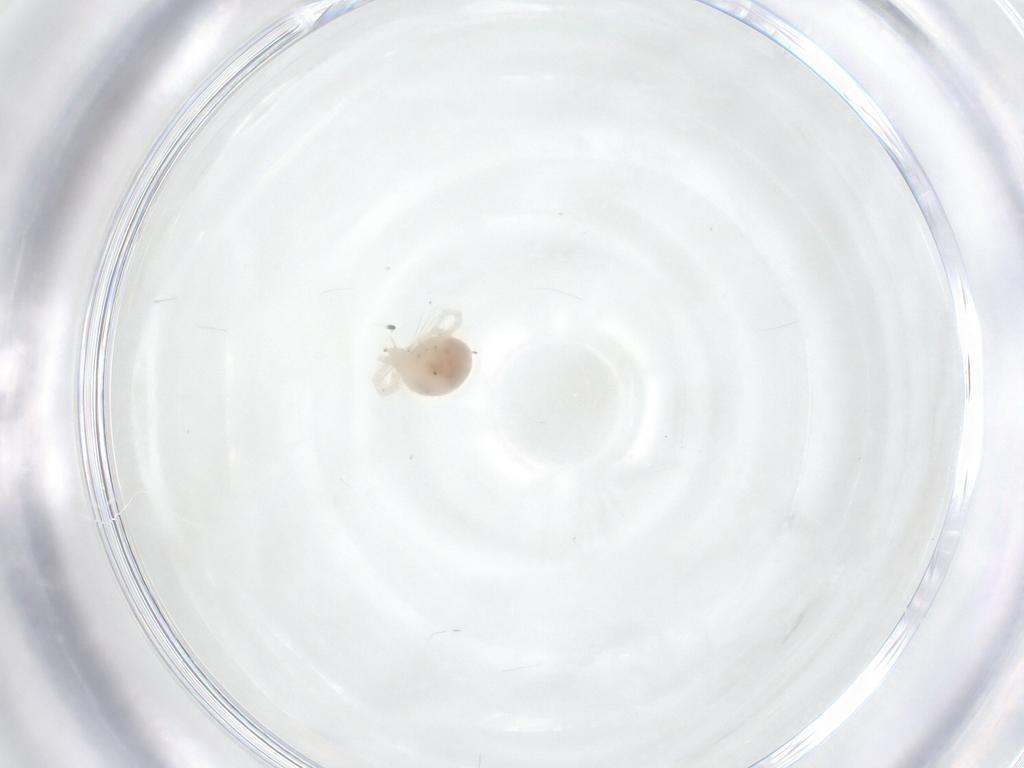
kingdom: Animalia
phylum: Arthropoda
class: Arachnida
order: Trombidiformes
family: Anystidae
